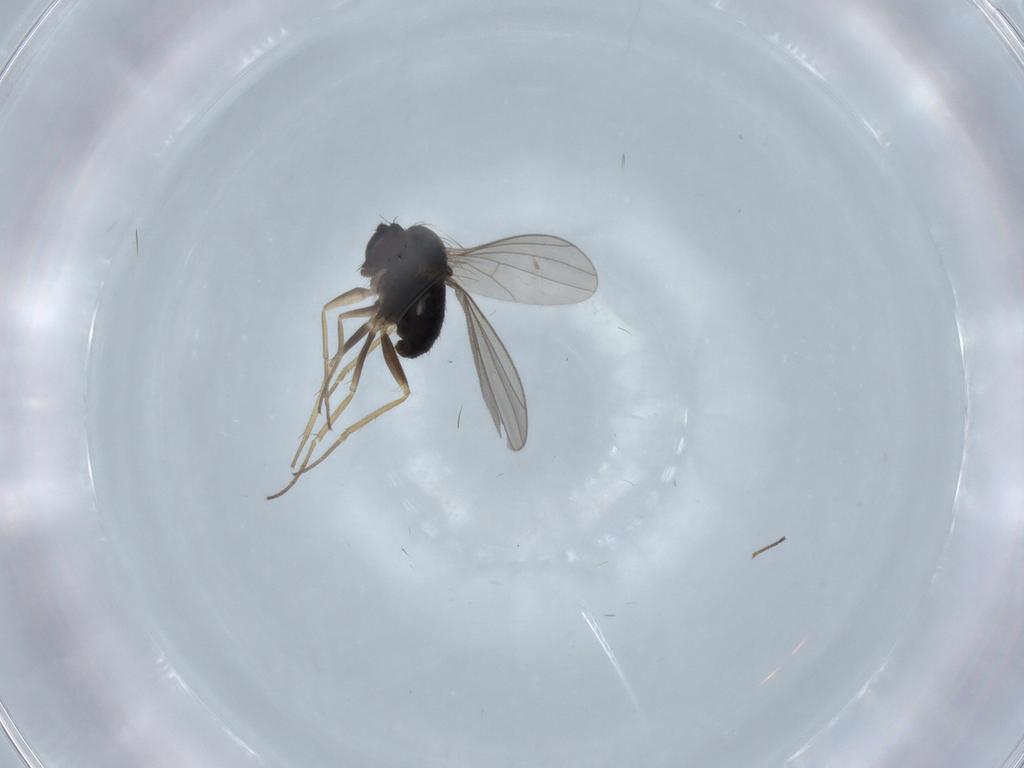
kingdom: Animalia
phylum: Arthropoda
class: Insecta
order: Diptera
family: Dolichopodidae
